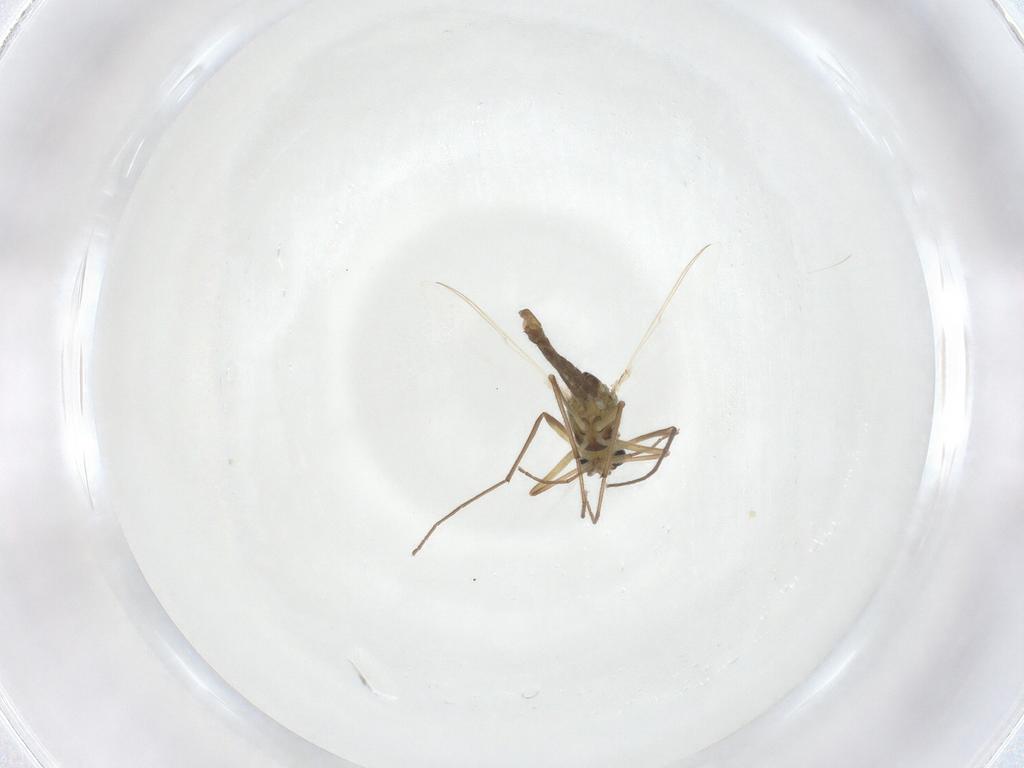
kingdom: Animalia
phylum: Arthropoda
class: Insecta
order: Diptera
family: Chironomidae
